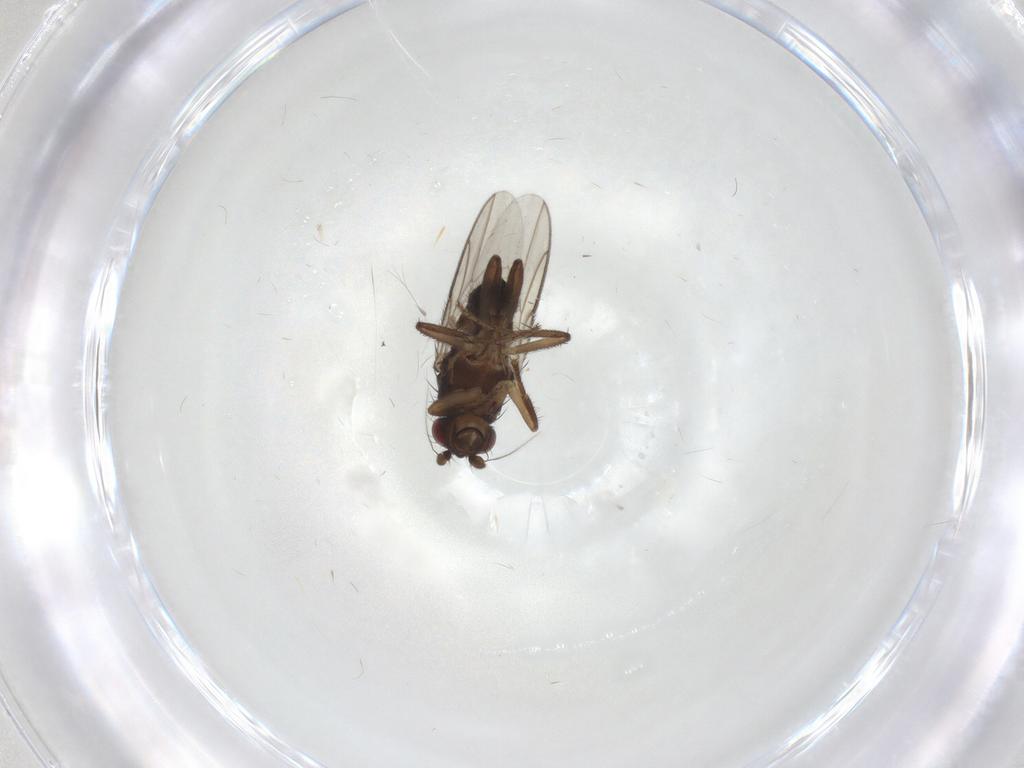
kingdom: Animalia
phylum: Arthropoda
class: Insecta
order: Diptera
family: Sphaeroceridae
